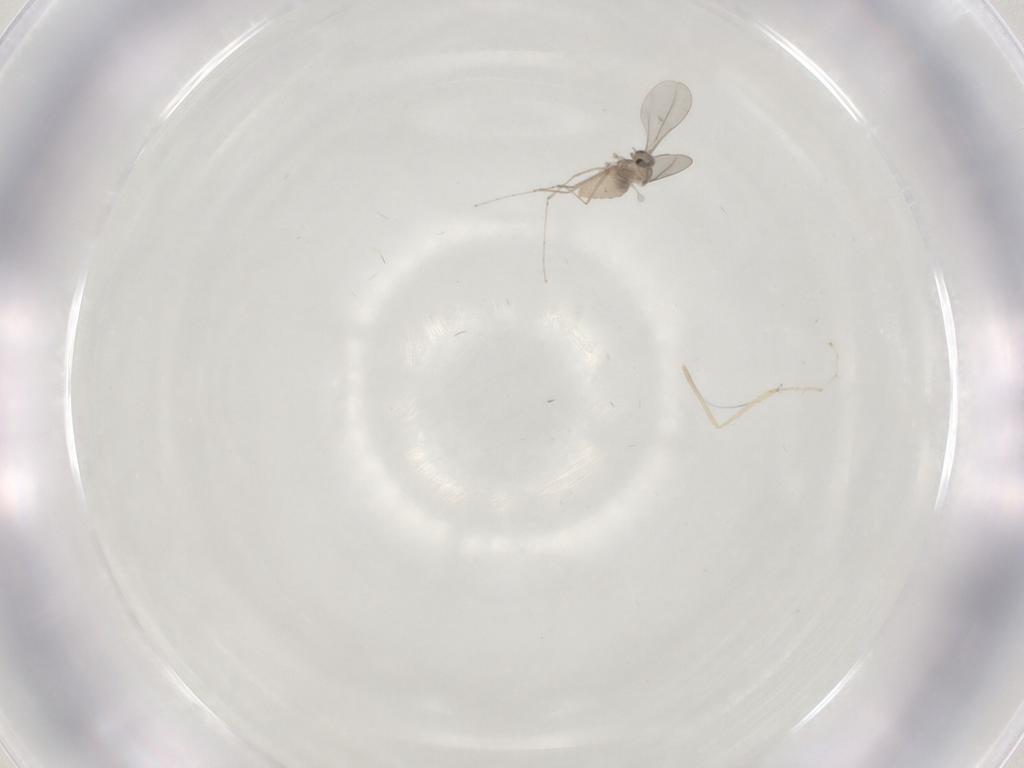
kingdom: Animalia
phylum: Arthropoda
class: Insecta
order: Diptera
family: Cecidomyiidae
